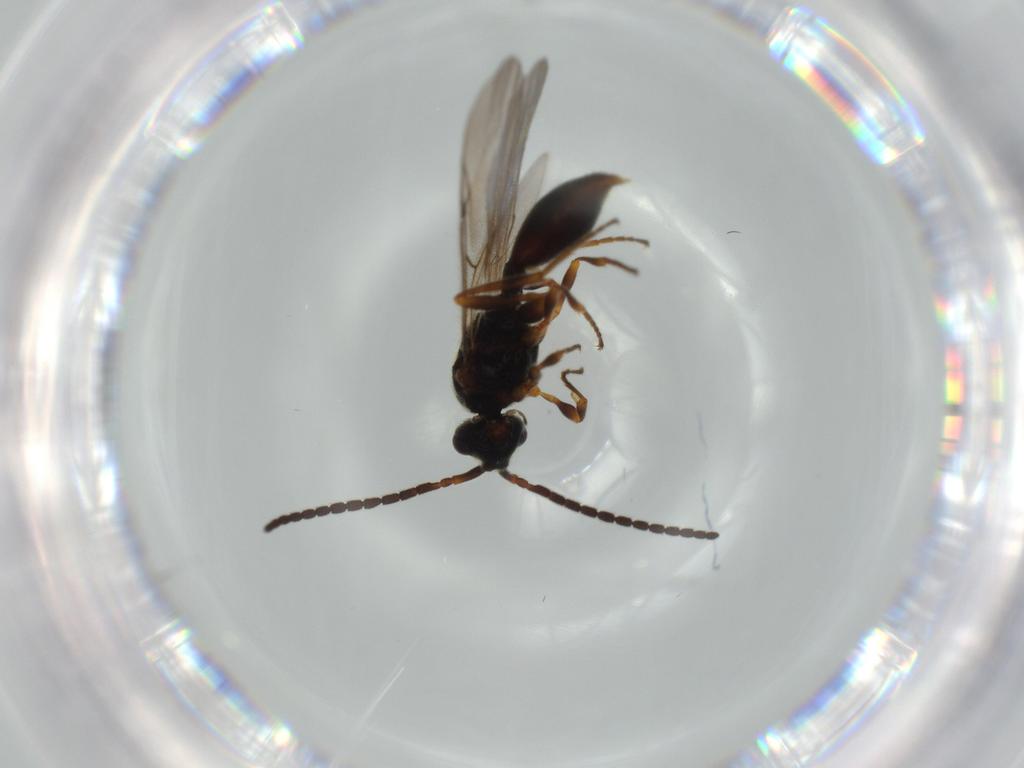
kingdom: Animalia
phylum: Arthropoda
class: Insecta
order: Hymenoptera
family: Diapriidae
